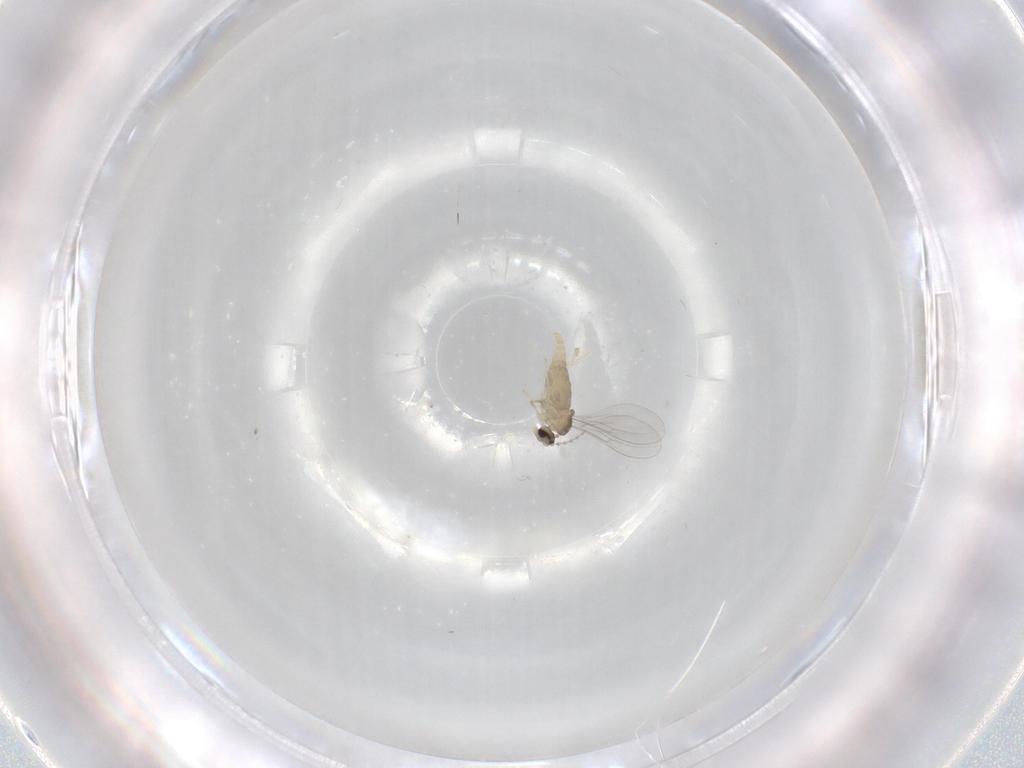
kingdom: Animalia
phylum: Arthropoda
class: Insecta
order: Diptera
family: Cecidomyiidae
